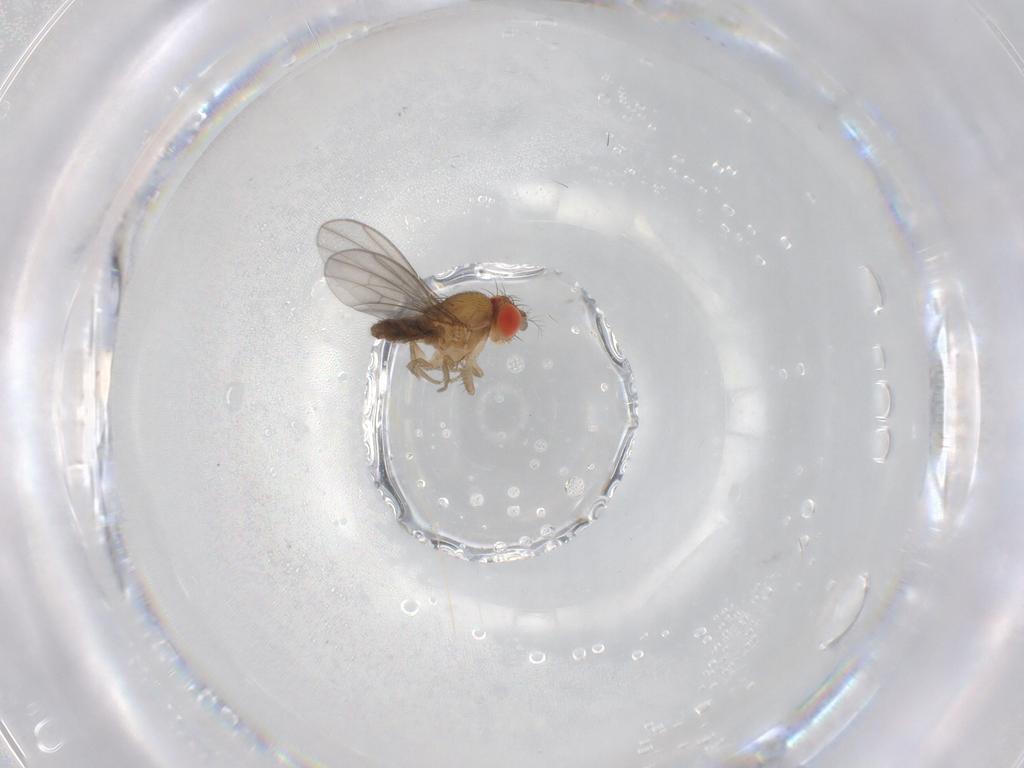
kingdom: Animalia
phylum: Arthropoda
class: Insecta
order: Diptera
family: Drosophilidae
